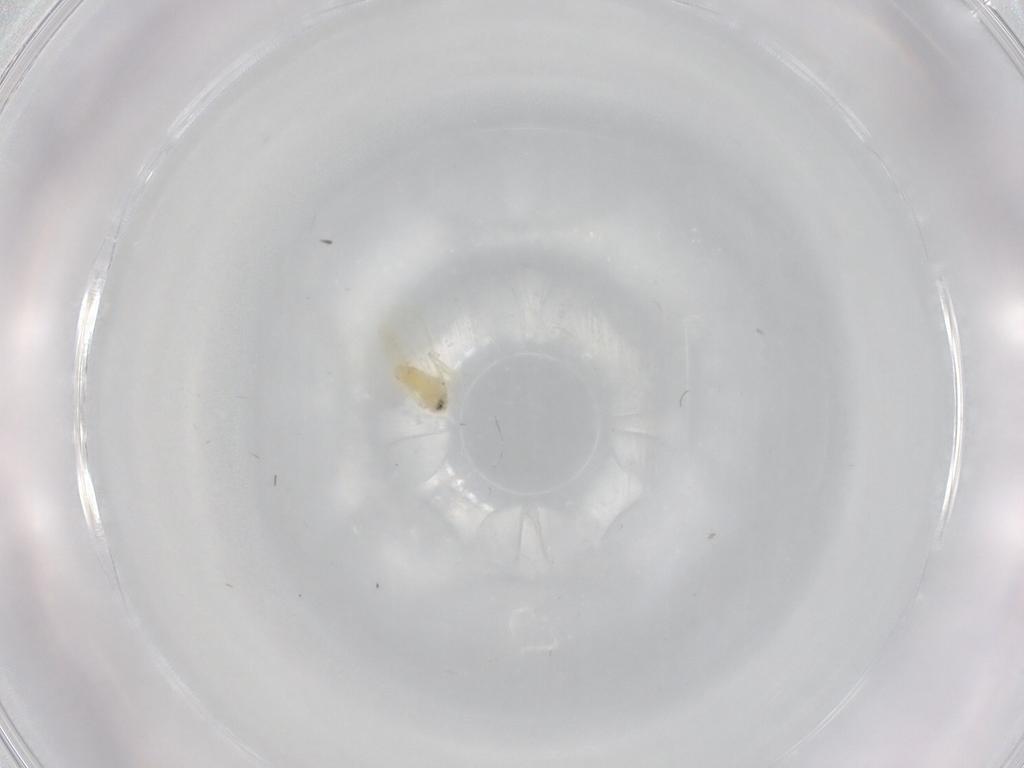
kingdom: Animalia
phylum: Arthropoda
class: Insecta
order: Hemiptera
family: Aleyrodidae
